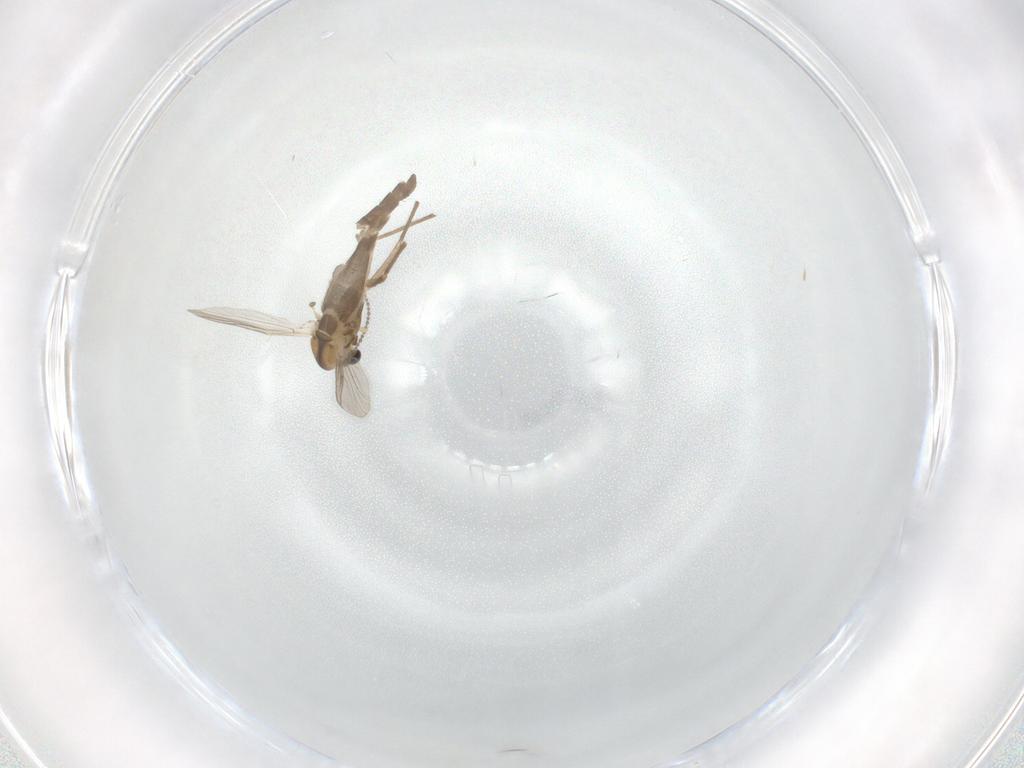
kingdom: Animalia
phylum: Arthropoda
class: Insecta
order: Diptera
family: Chironomidae
